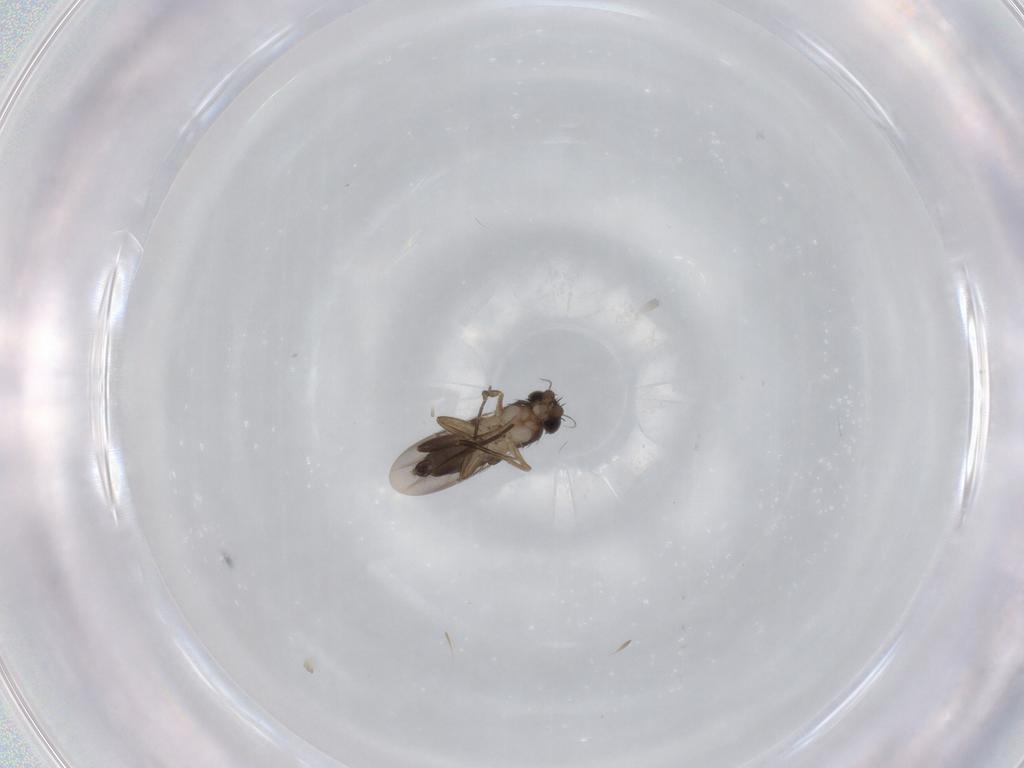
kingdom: Animalia
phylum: Arthropoda
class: Insecta
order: Diptera
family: Phoridae
